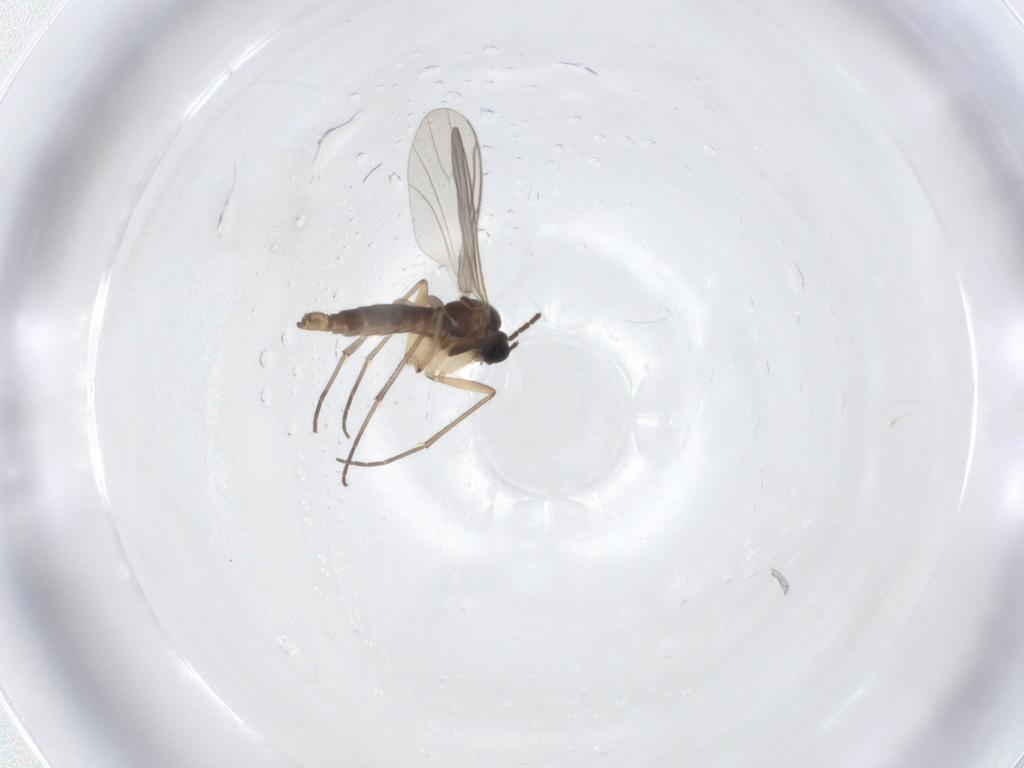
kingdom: Animalia
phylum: Arthropoda
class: Insecta
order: Diptera
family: Sciaridae
